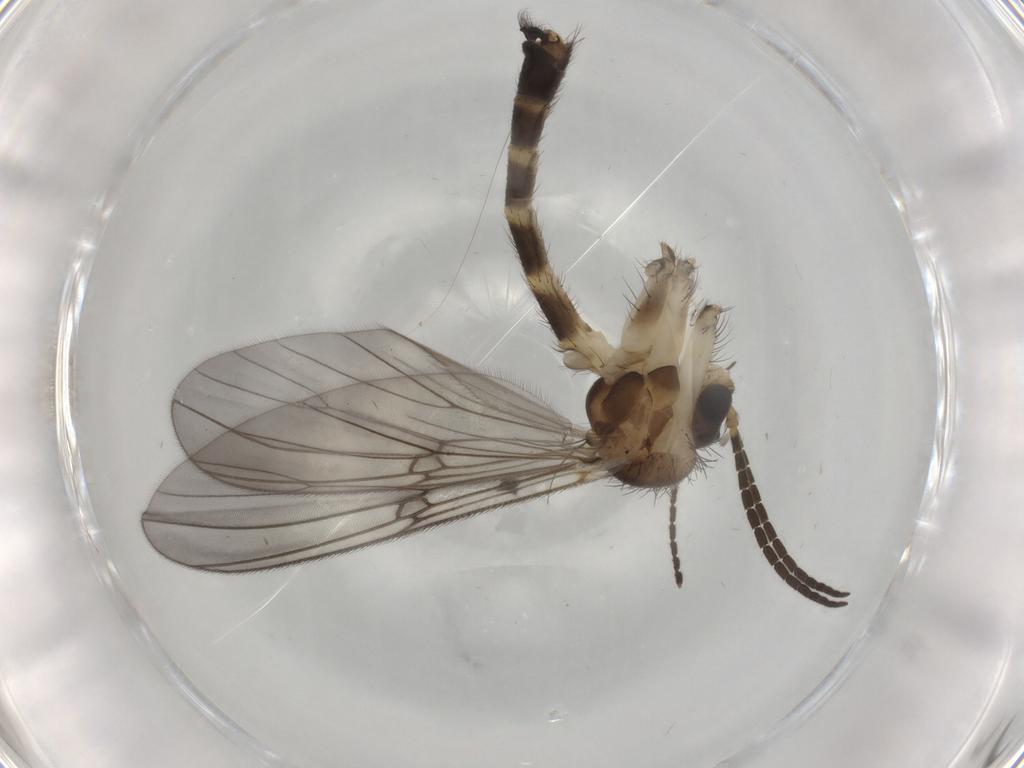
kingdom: Animalia
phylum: Arthropoda
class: Insecta
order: Diptera
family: Mycetophilidae
